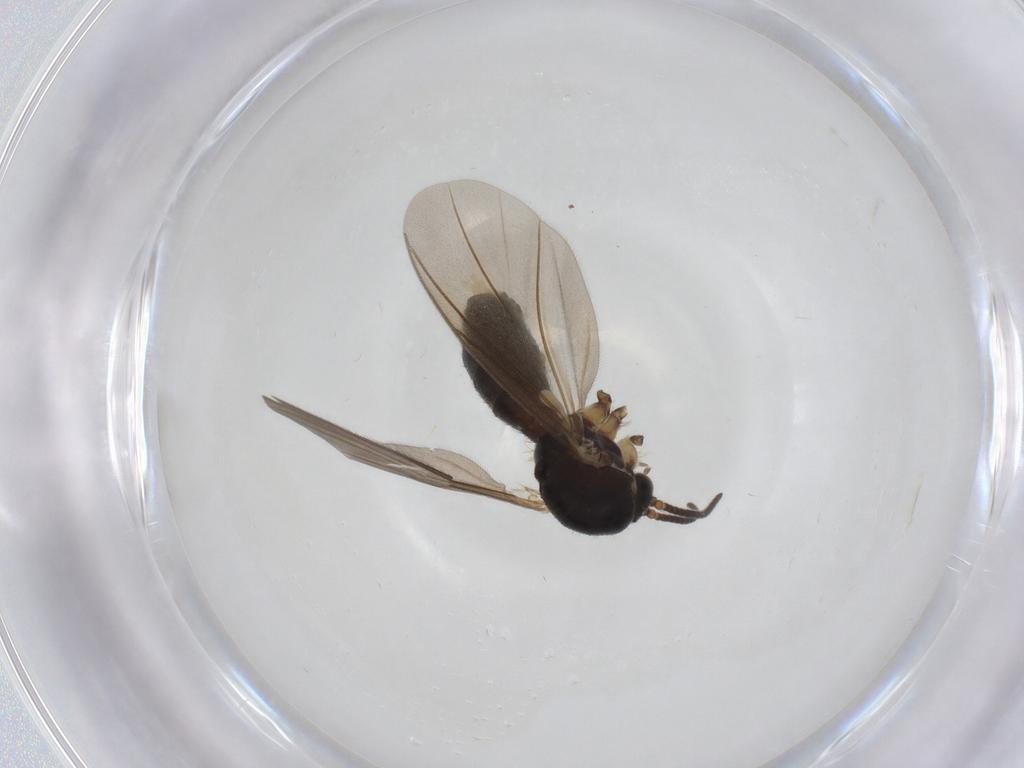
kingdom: Animalia
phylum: Arthropoda
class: Insecta
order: Diptera
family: Mycetophilidae
